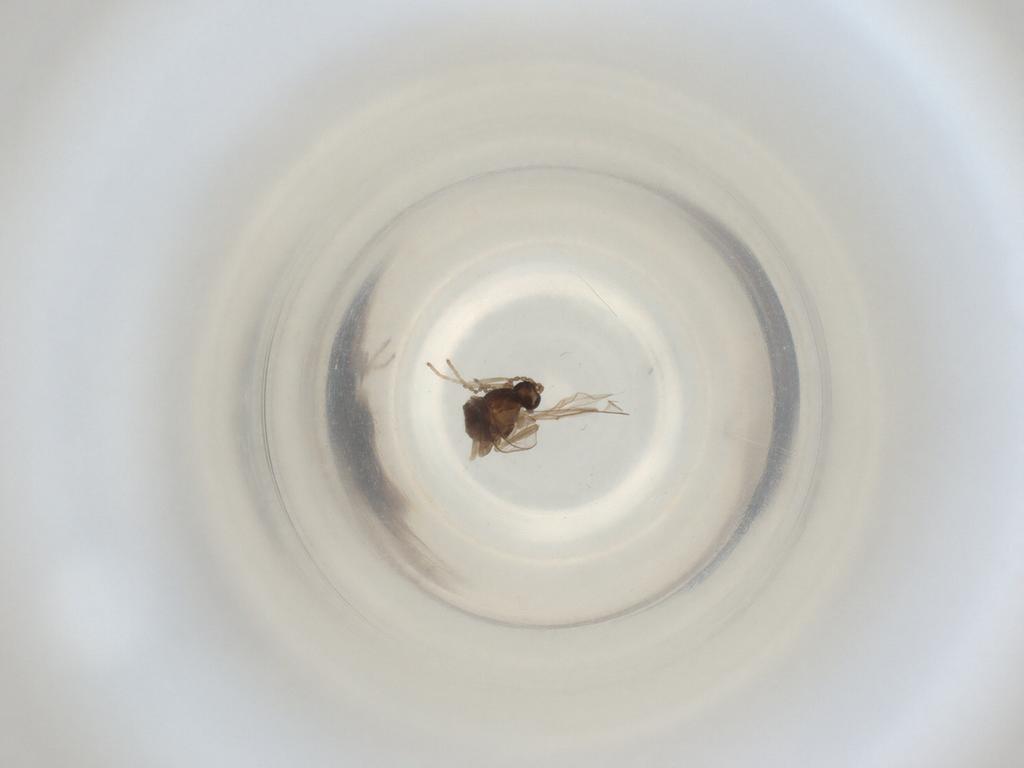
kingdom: Animalia
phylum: Arthropoda
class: Insecta
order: Diptera
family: Cecidomyiidae
